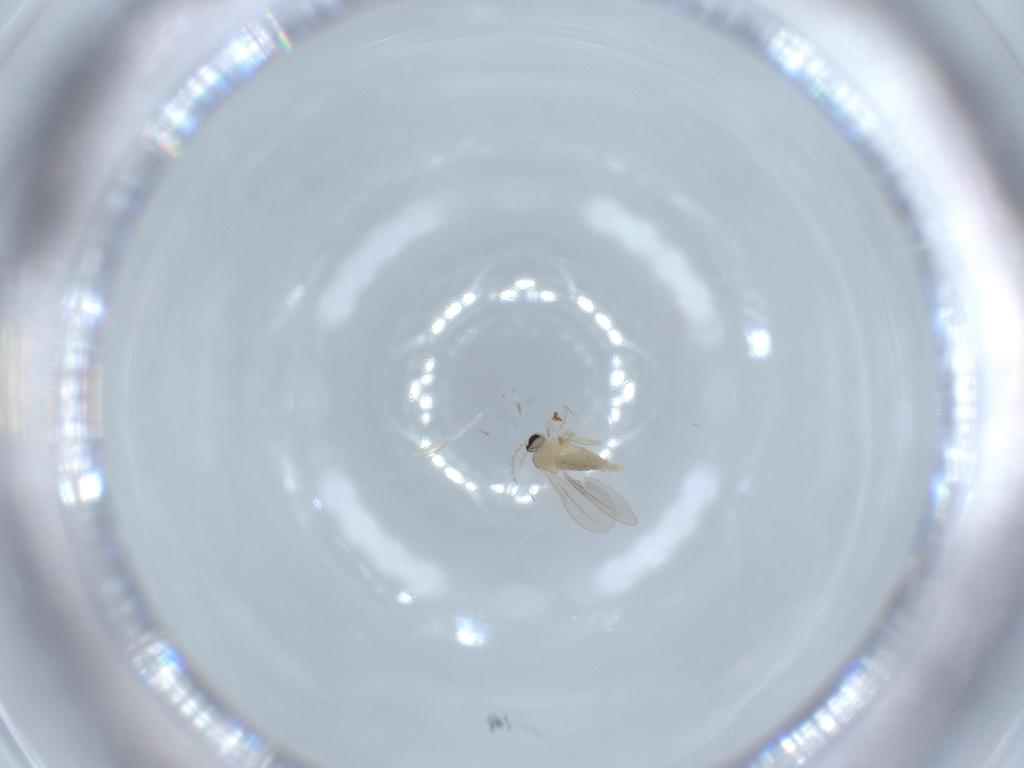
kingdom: Animalia
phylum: Arthropoda
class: Insecta
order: Diptera
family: Cecidomyiidae
